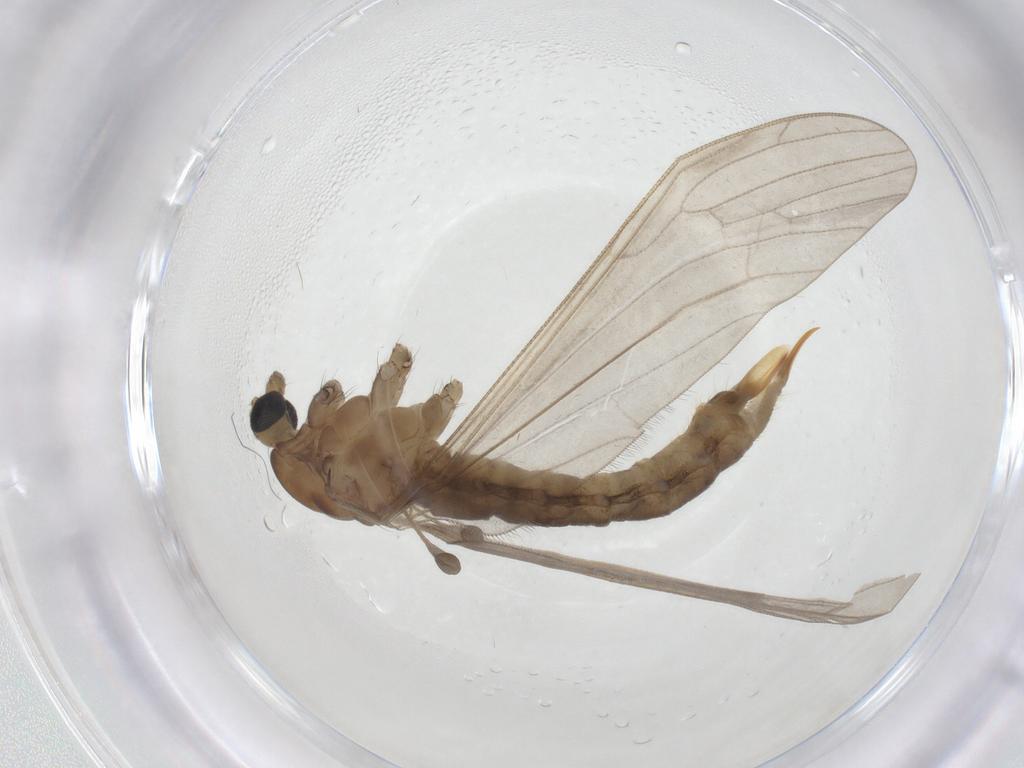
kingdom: Animalia
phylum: Arthropoda
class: Insecta
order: Diptera
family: Limoniidae
